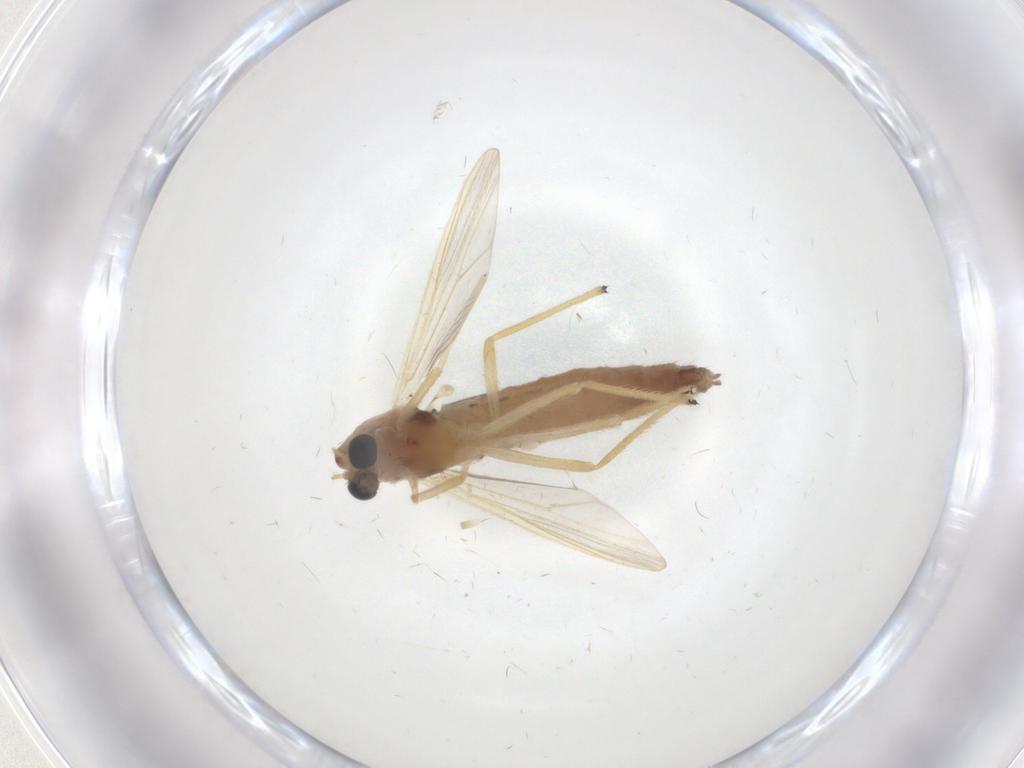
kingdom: Animalia
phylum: Arthropoda
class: Insecta
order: Diptera
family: Chironomidae
